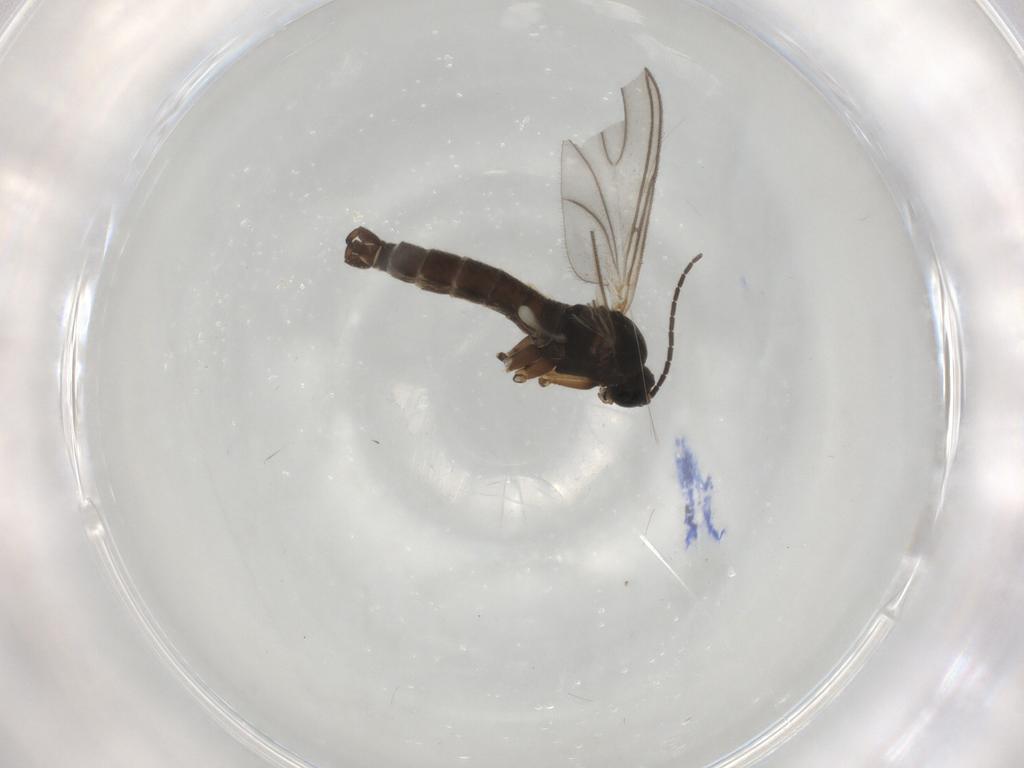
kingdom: Animalia
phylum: Arthropoda
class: Insecta
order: Diptera
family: Sciaridae
